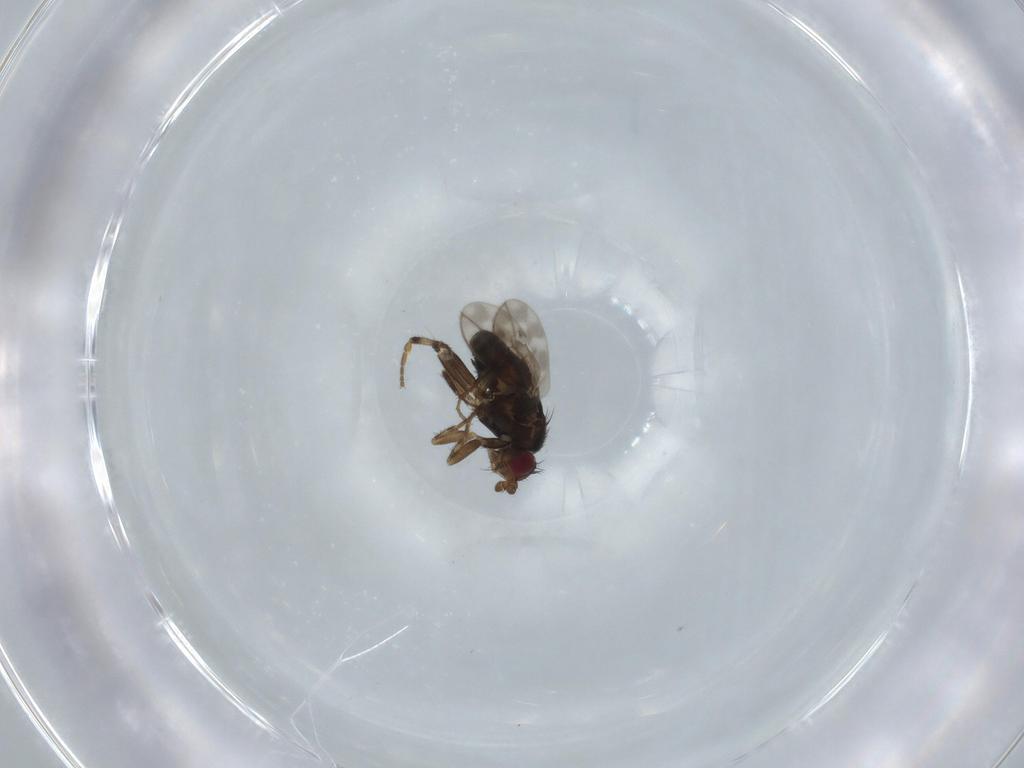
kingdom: Animalia
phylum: Arthropoda
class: Insecta
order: Diptera
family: Sphaeroceridae
